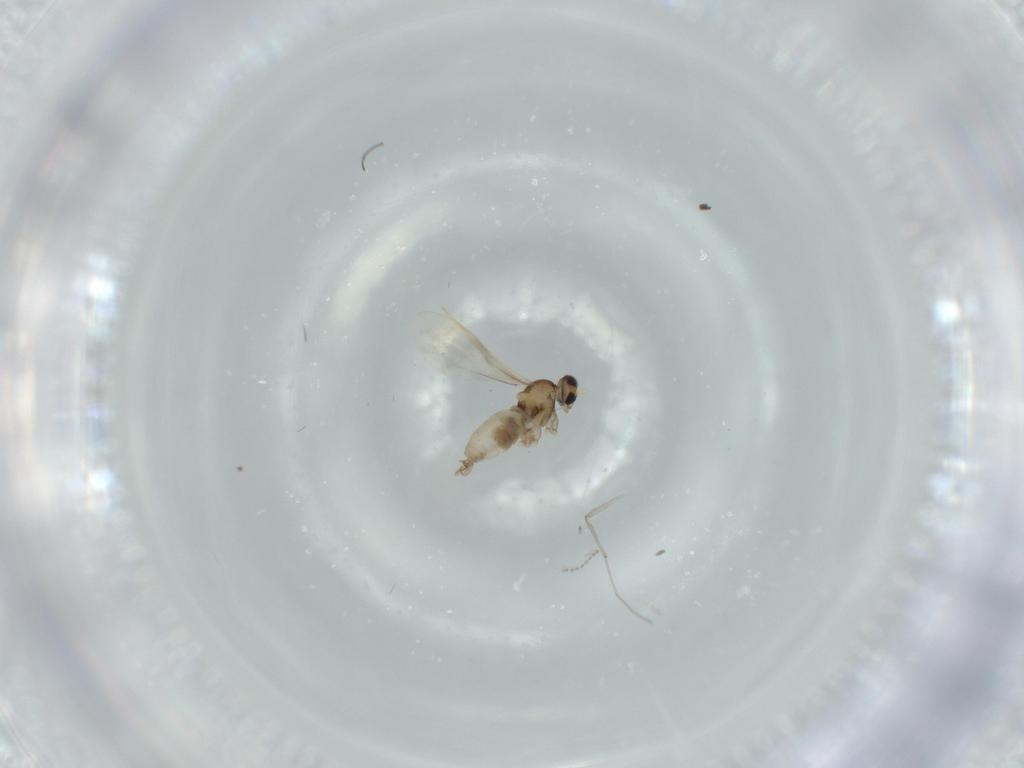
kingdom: Animalia
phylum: Arthropoda
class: Insecta
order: Diptera
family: Chironomidae
